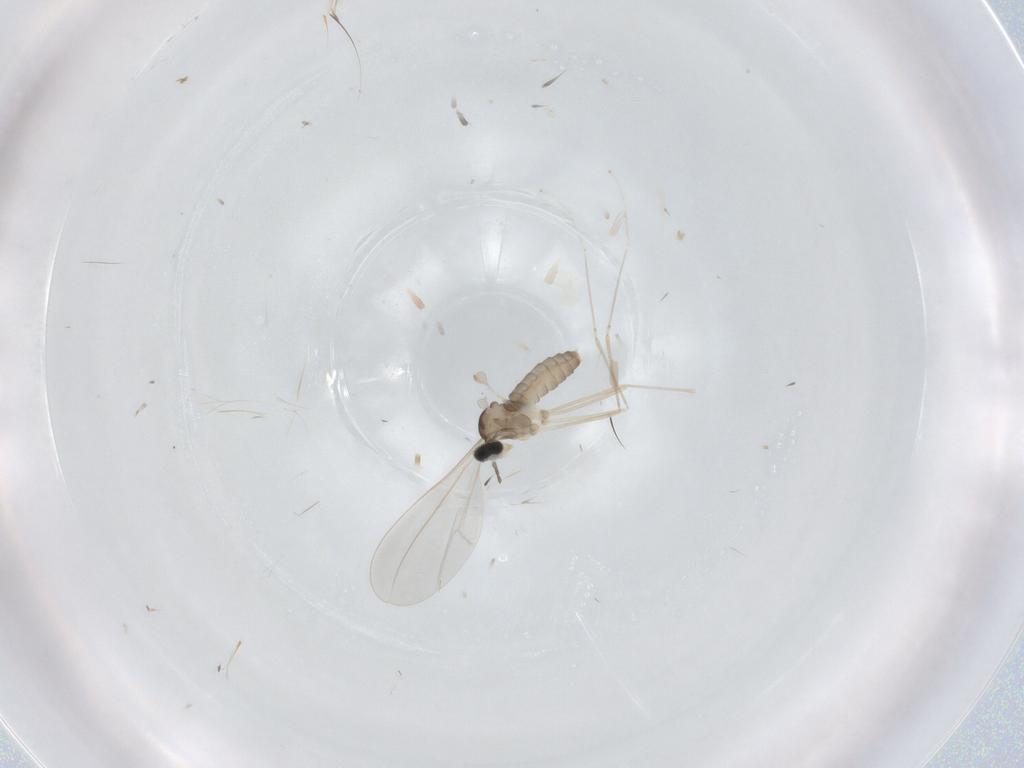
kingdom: Animalia
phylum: Arthropoda
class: Insecta
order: Diptera
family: Cecidomyiidae
